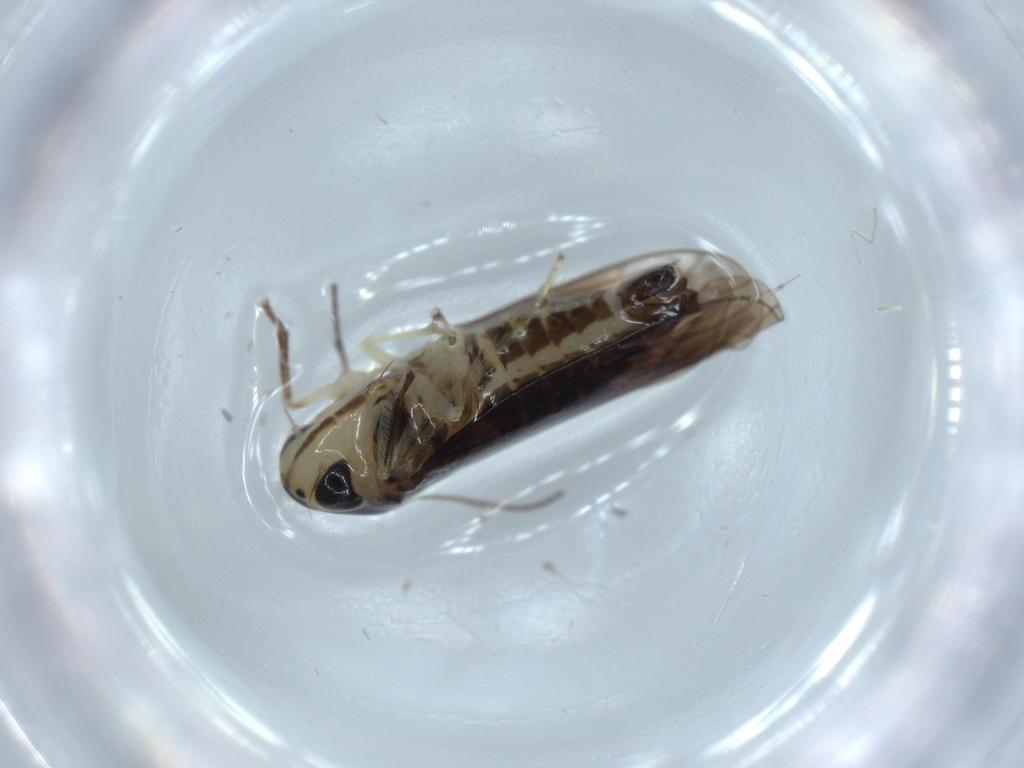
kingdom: Animalia
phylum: Arthropoda
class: Insecta
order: Hemiptera
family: Cicadellidae
